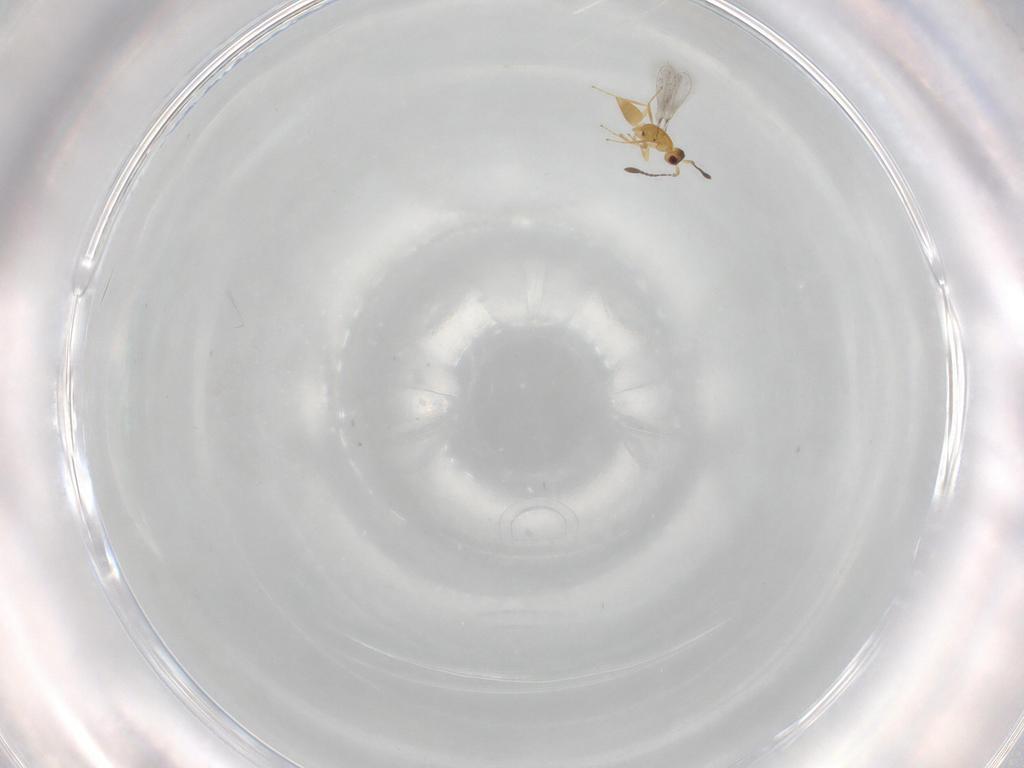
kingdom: Animalia
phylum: Arthropoda
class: Insecta
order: Hymenoptera
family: Mymaridae
